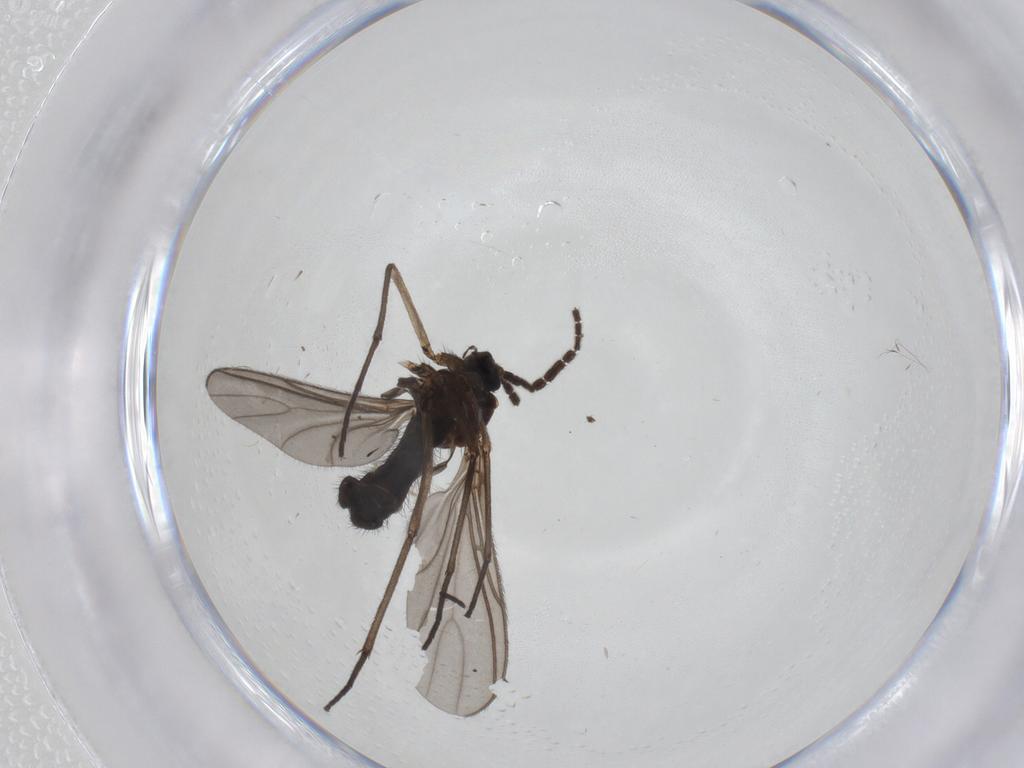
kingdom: Animalia
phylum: Arthropoda
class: Insecta
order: Diptera
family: Sciaridae
